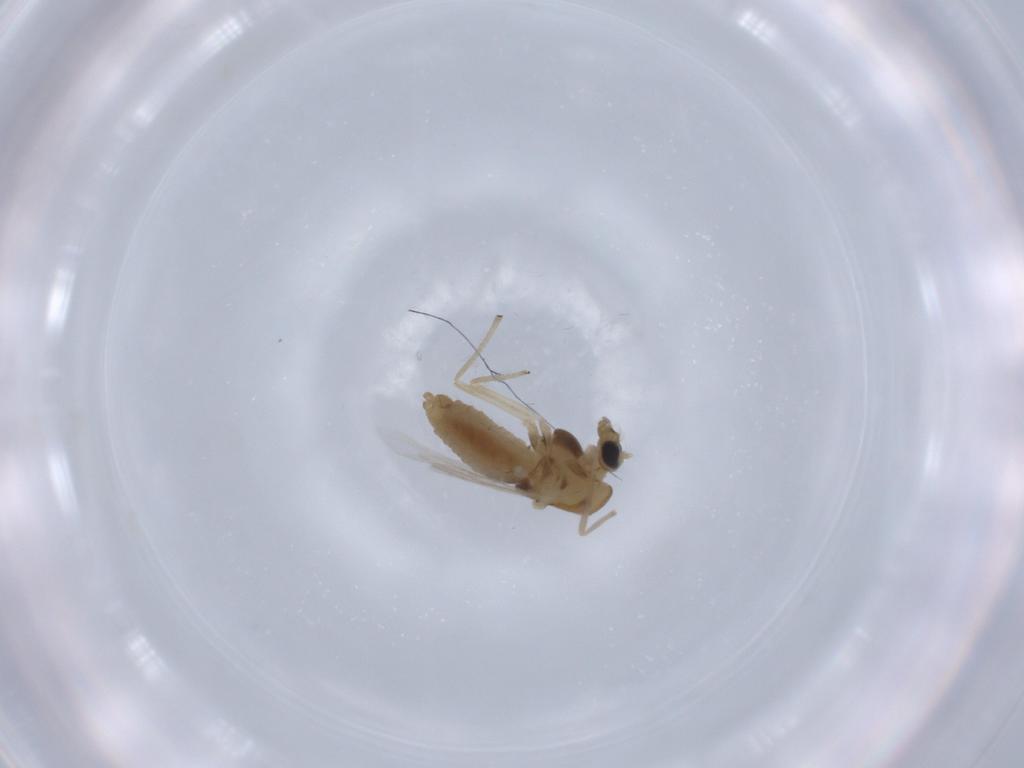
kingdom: Animalia
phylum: Arthropoda
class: Insecta
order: Diptera
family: Chironomidae
